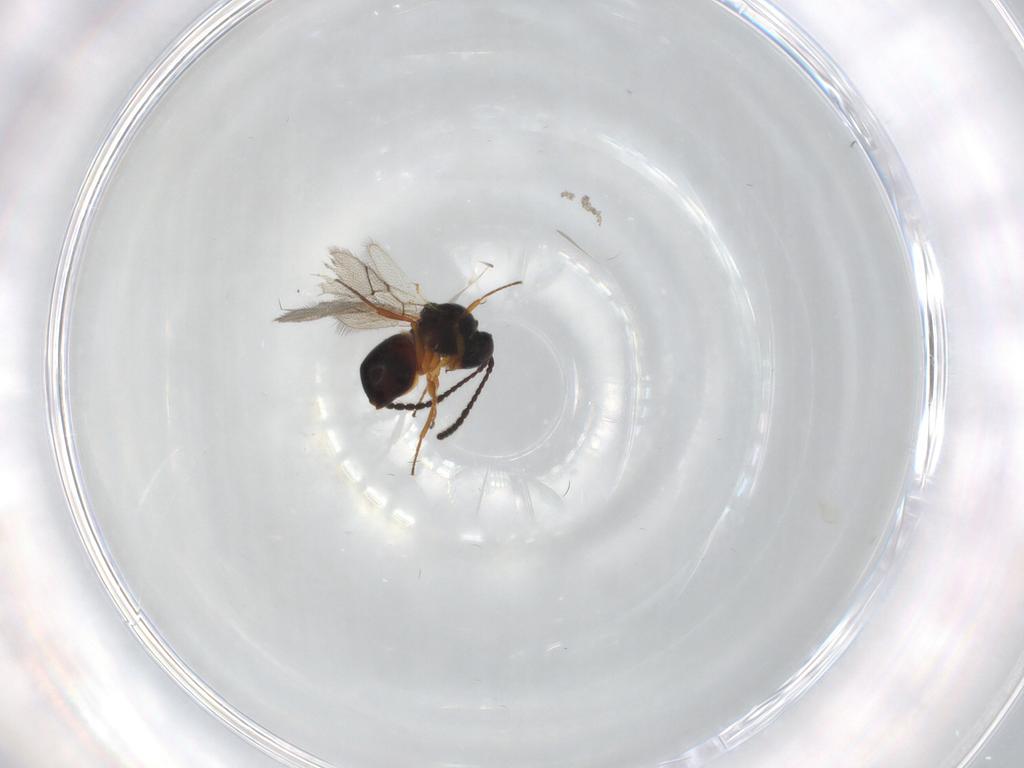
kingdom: Animalia
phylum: Arthropoda
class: Insecta
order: Hymenoptera
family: Figitidae
